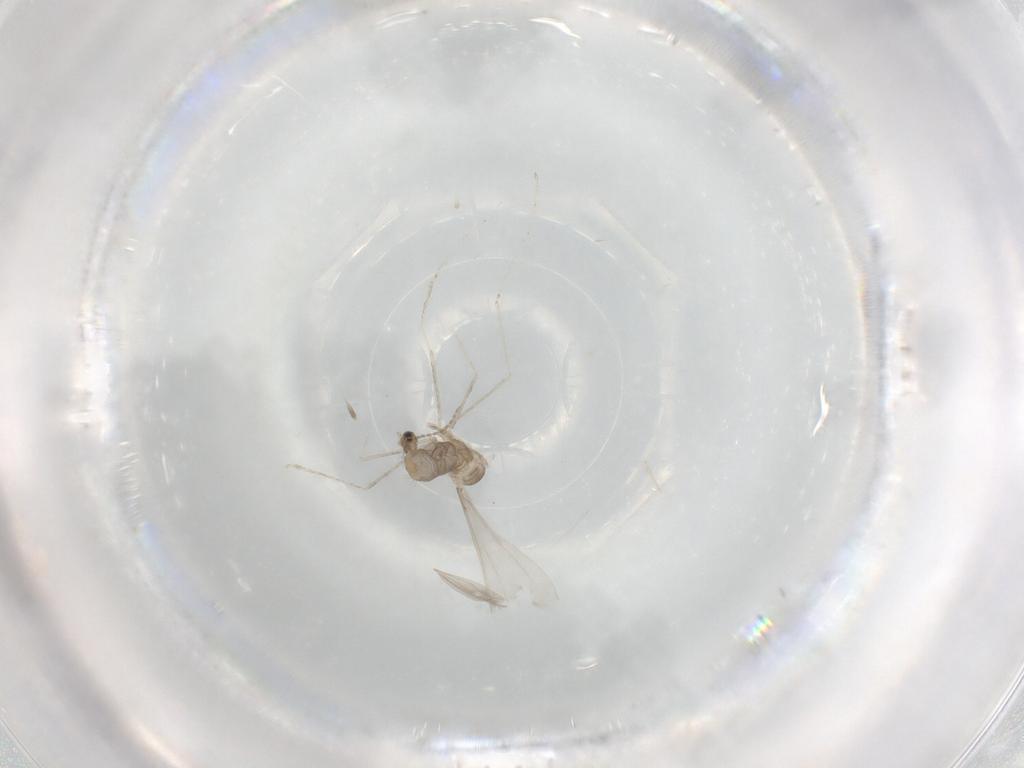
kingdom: Animalia
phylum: Arthropoda
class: Insecta
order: Diptera
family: Cecidomyiidae
